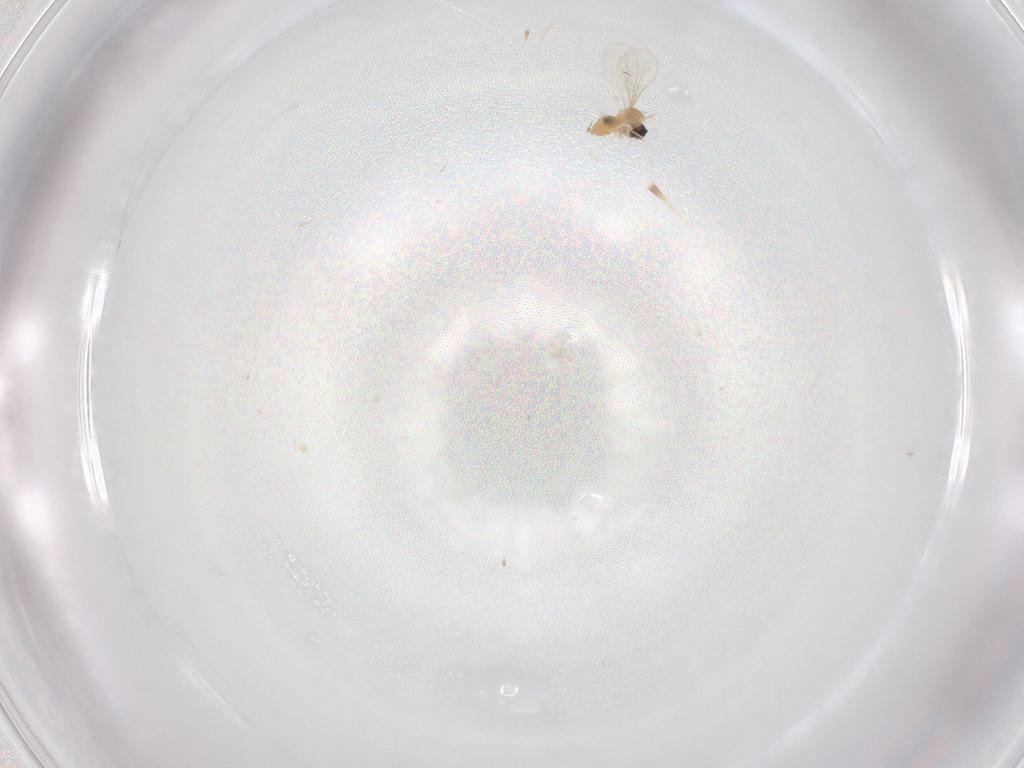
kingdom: Animalia
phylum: Arthropoda
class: Insecta
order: Diptera
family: Cecidomyiidae
